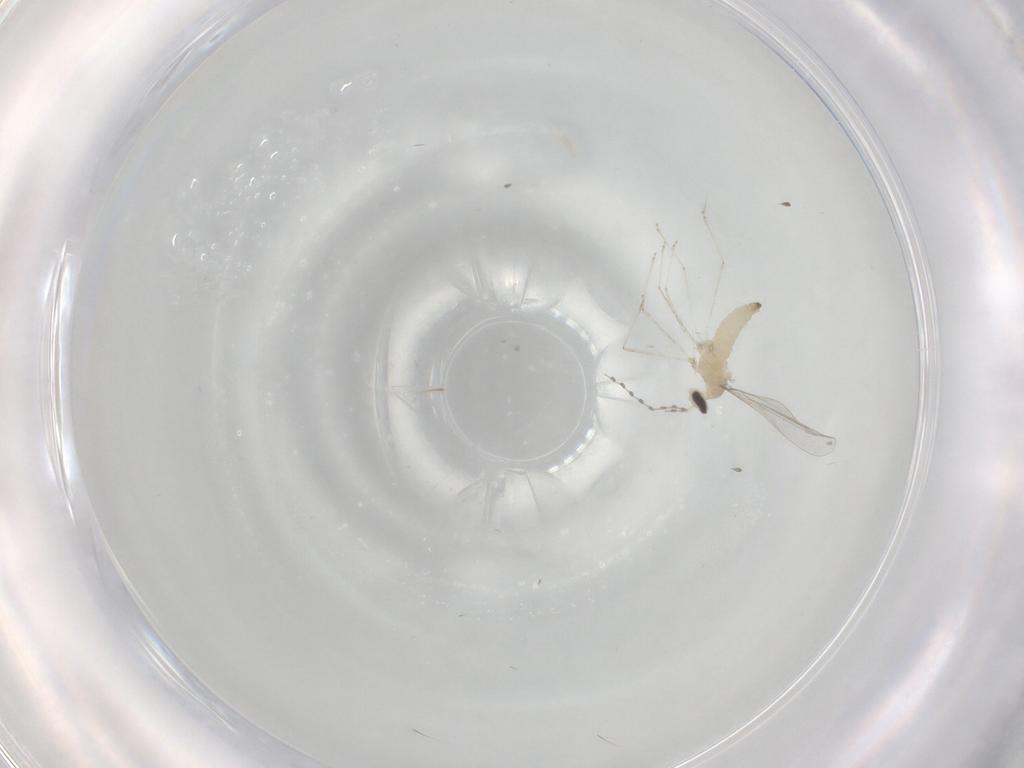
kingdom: Animalia
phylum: Arthropoda
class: Insecta
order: Diptera
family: Cecidomyiidae
